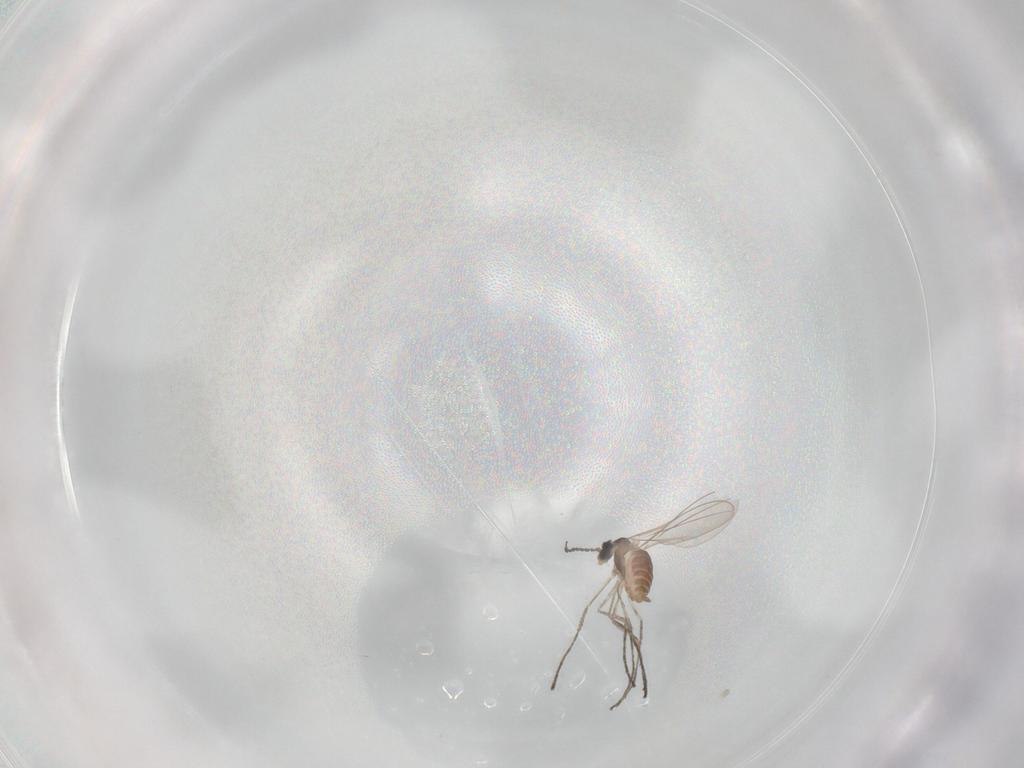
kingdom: Animalia
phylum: Arthropoda
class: Insecta
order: Diptera
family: Cecidomyiidae
